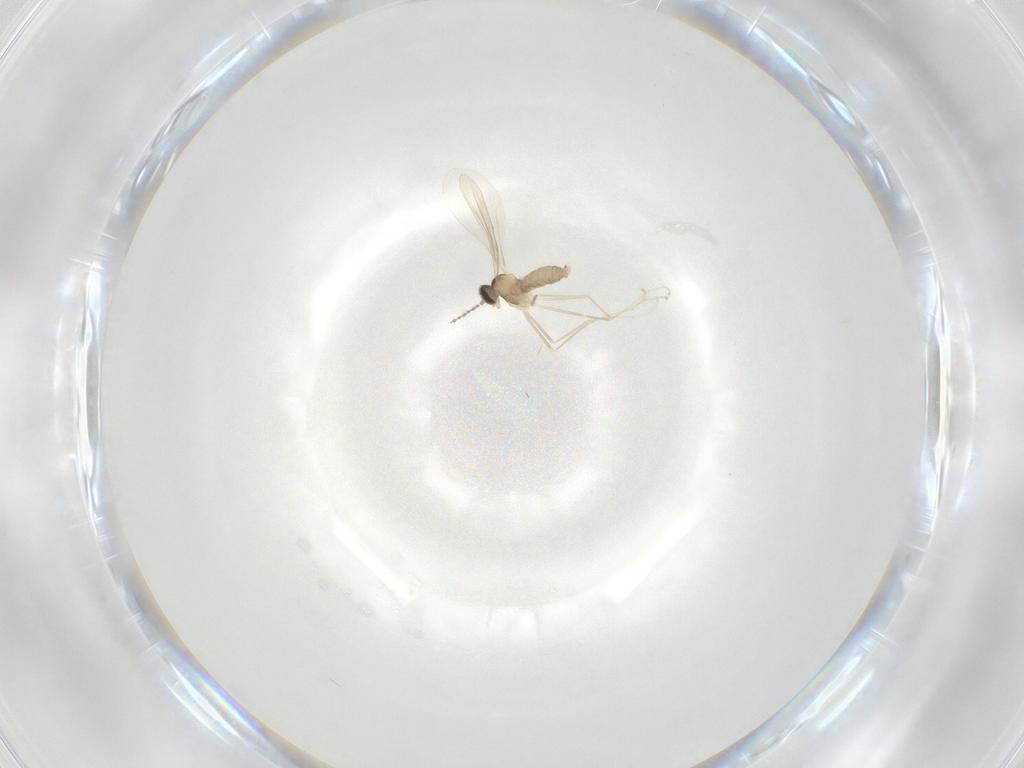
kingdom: Animalia
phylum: Arthropoda
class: Insecta
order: Diptera
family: Cecidomyiidae
